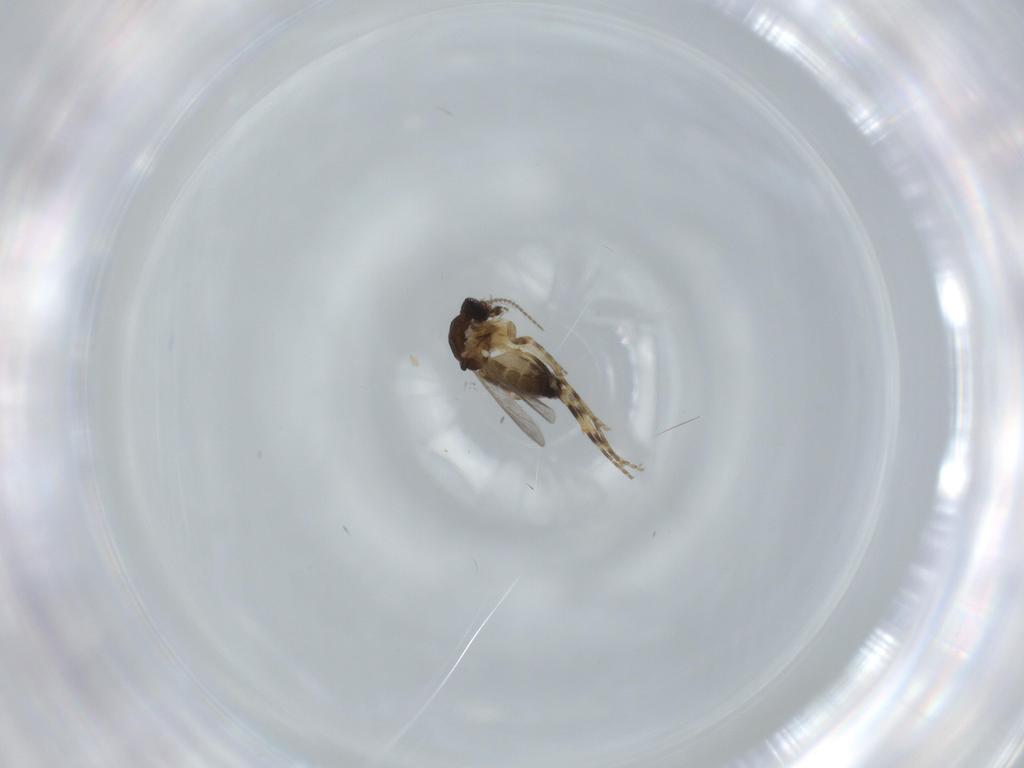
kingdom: Animalia
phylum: Arthropoda
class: Insecta
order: Diptera
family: Ceratopogonidae
